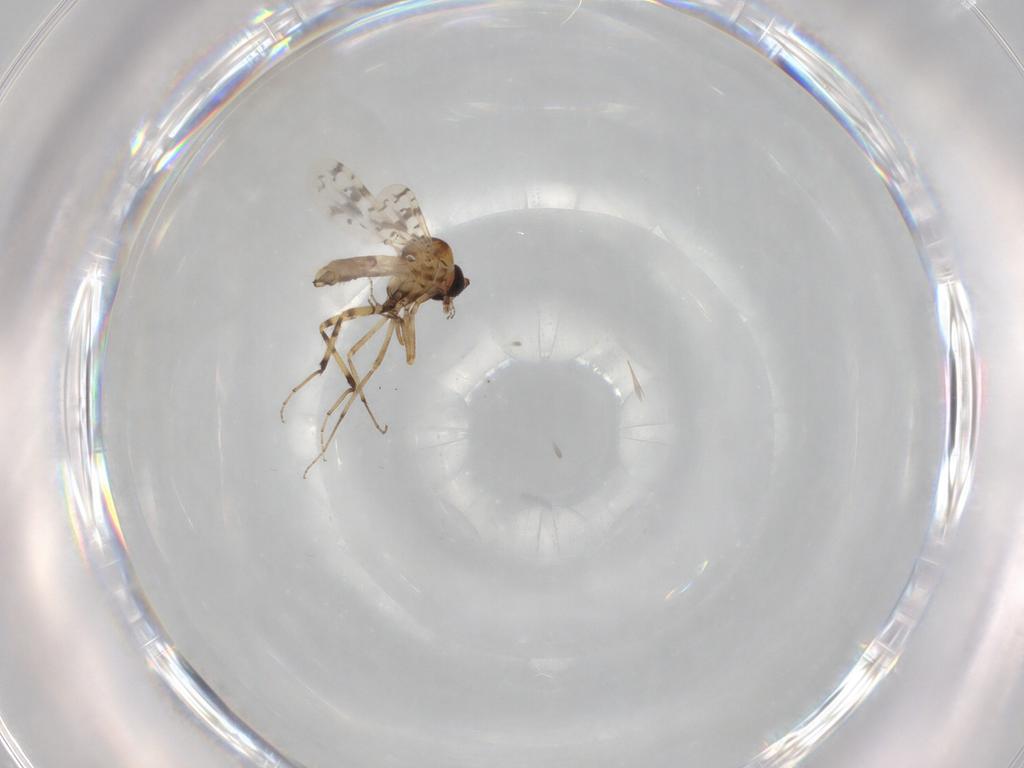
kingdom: Animalia
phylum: Arthropoda
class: Insecta
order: Diptera
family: Ceratopogonidae
